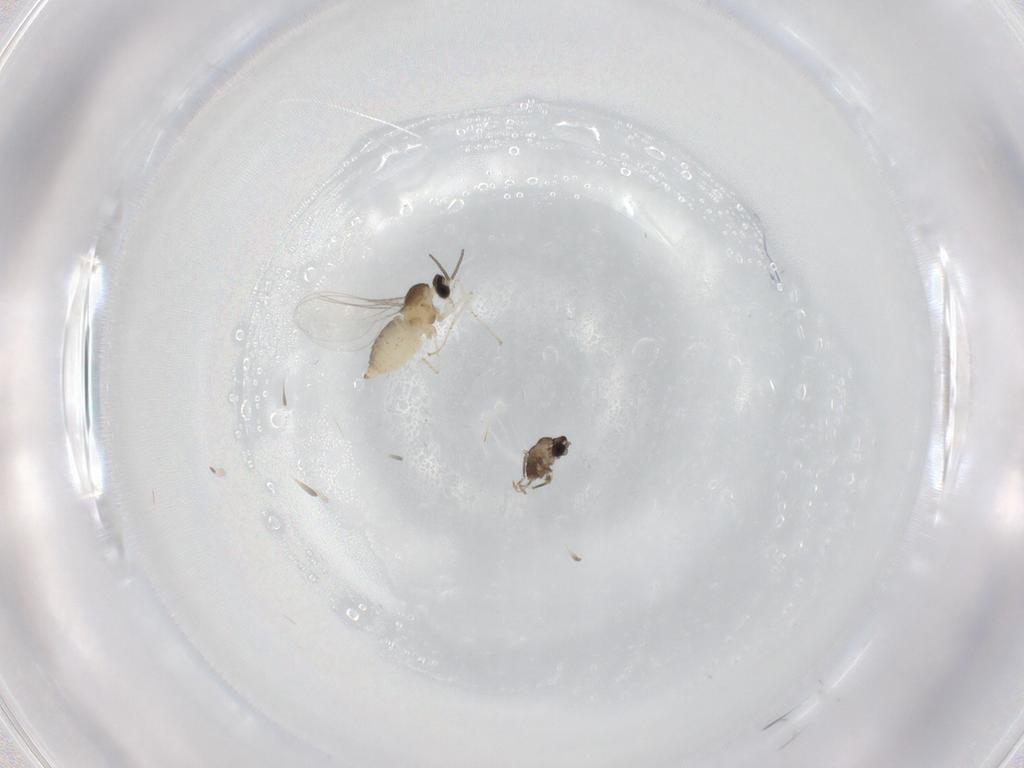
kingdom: Animalia
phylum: Arthropoda
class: Insecta
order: Diptera
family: Cecidomyiidae
